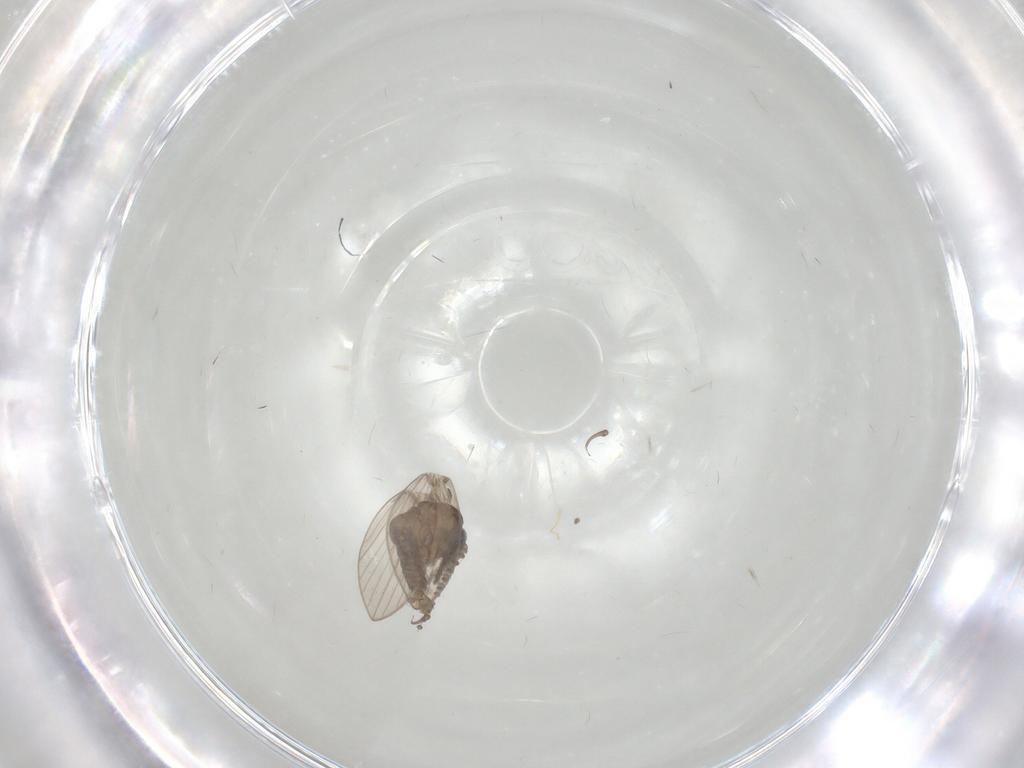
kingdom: Animalia
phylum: Arthropoda
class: Insecta
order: Diptera
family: Psychodidae
